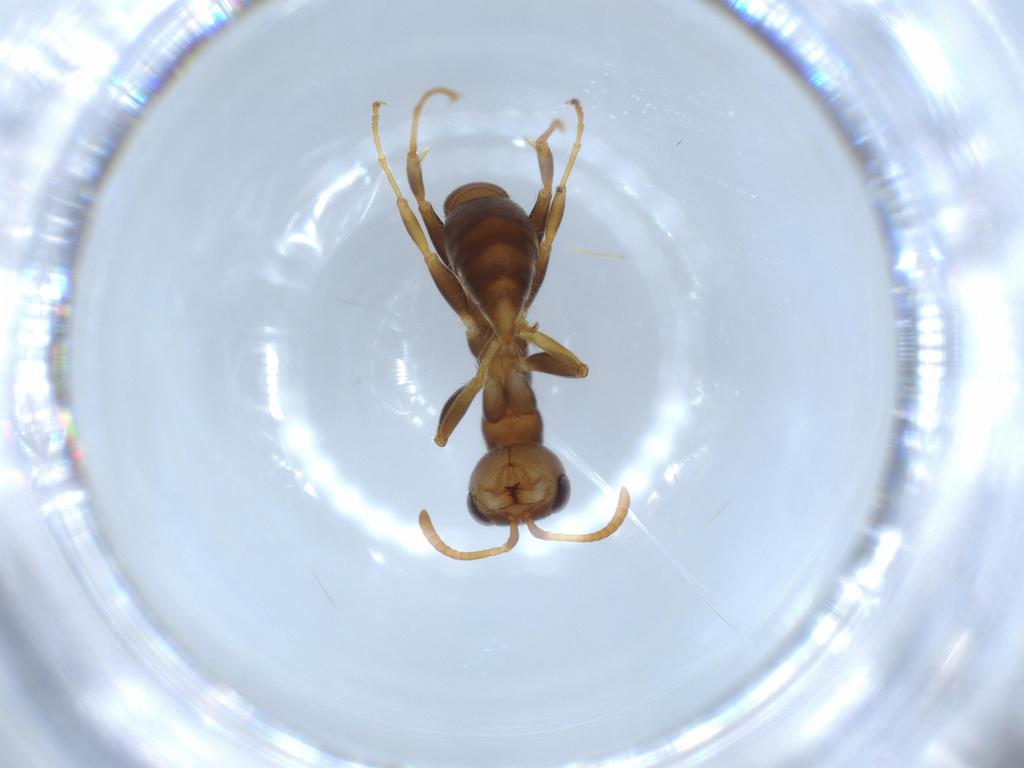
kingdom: Animalia
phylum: Arthropoda
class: Insecta
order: Hymenoptera
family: Formicidae
